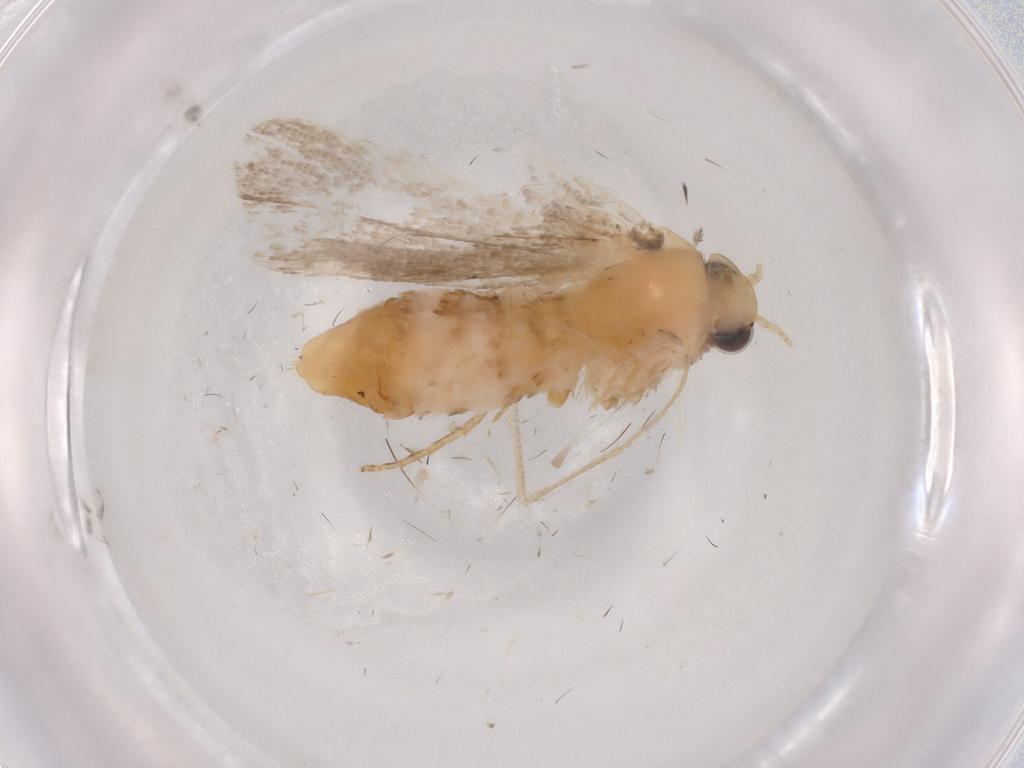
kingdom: Animalia
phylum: Arthropoda
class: Insecta
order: Lepidoptera
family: Erebidae
